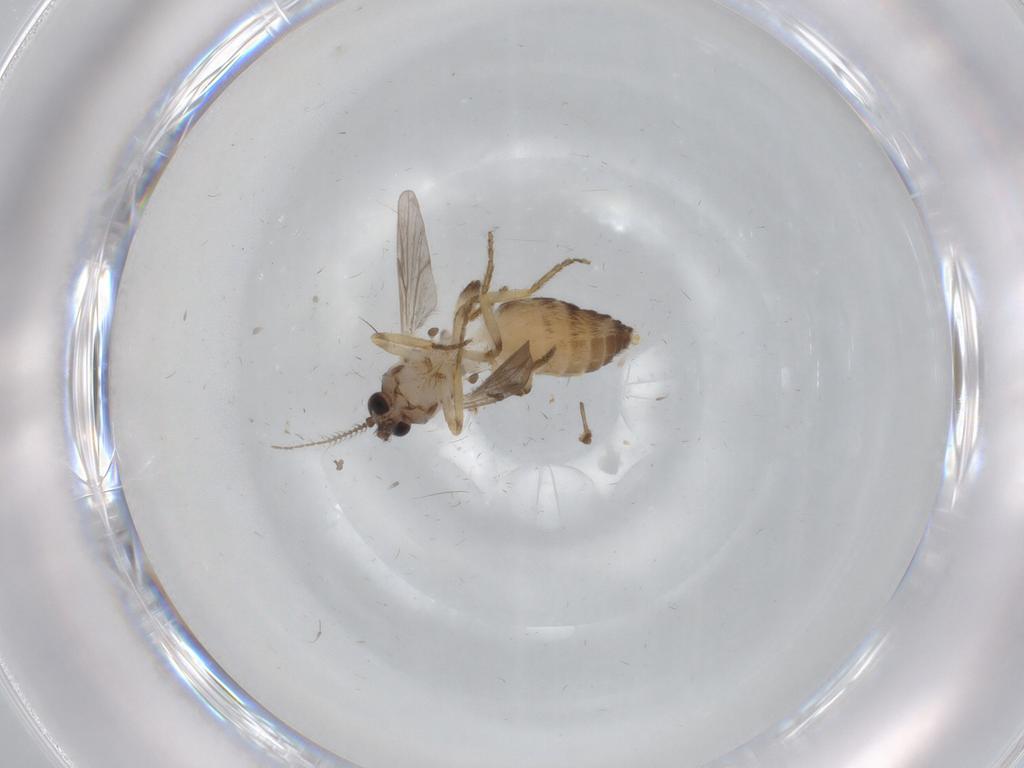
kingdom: Animalia
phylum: Arthropoda
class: Insecta
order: Diptera
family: Ceratopogonidae
